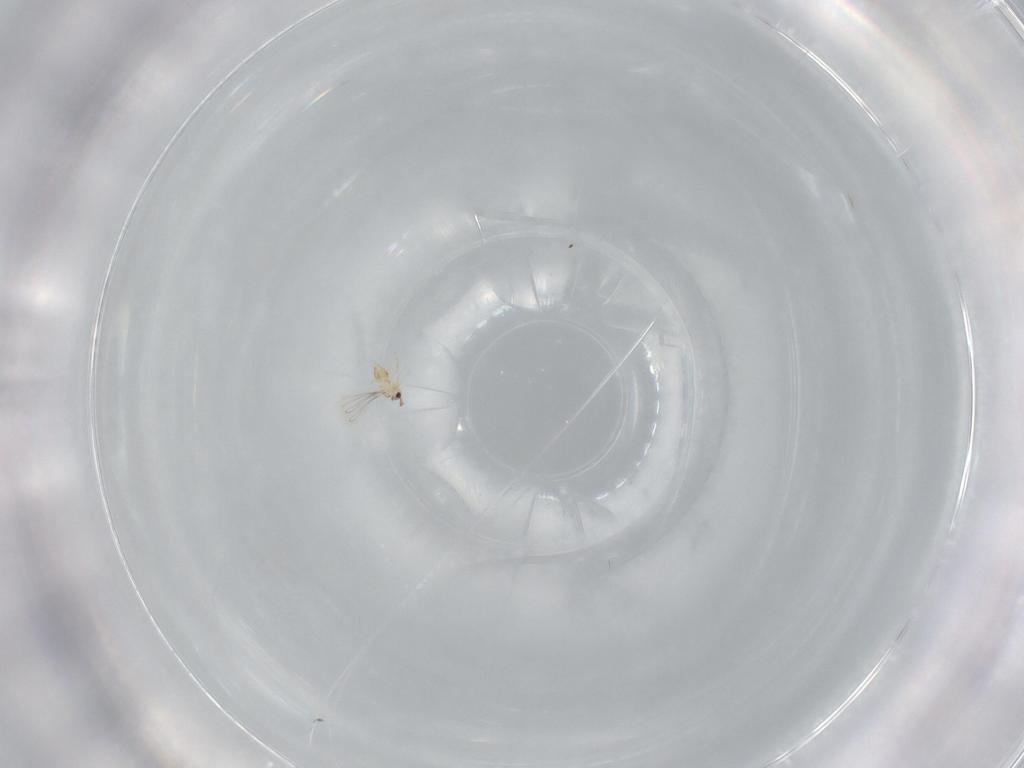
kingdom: Animalia
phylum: Arthropoda
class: Insecta
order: Hymenoptera
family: Mymaridae
